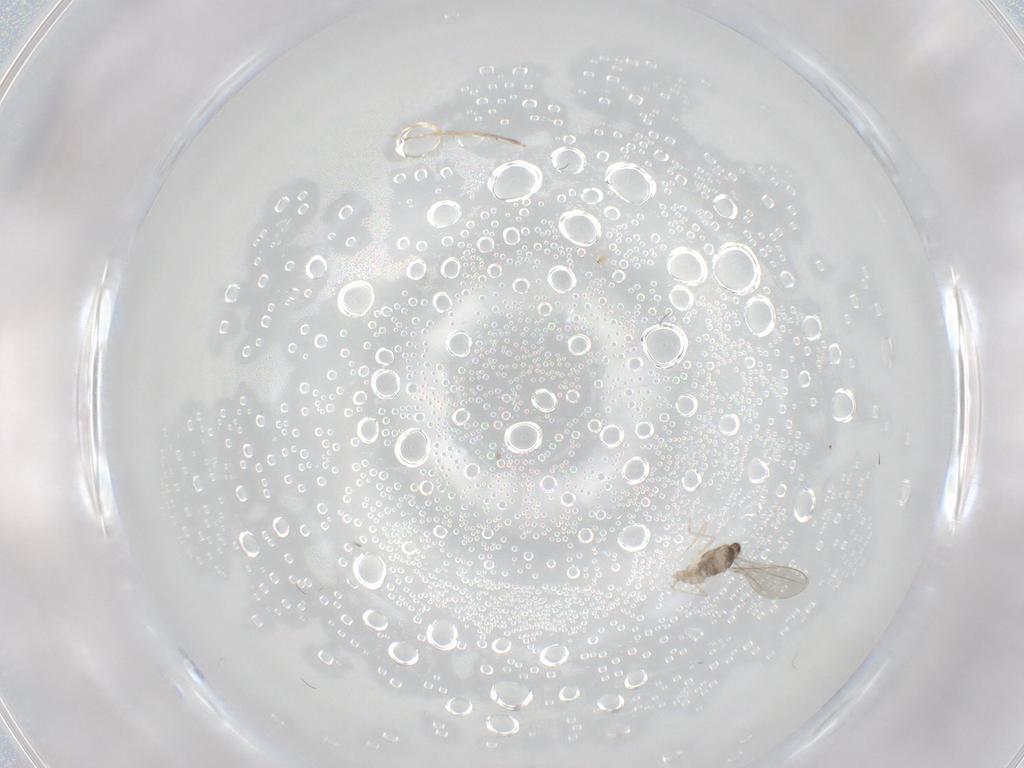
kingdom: Animalia
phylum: Arthropoda
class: Insecta
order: Diptera
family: Cecidomyiidae
